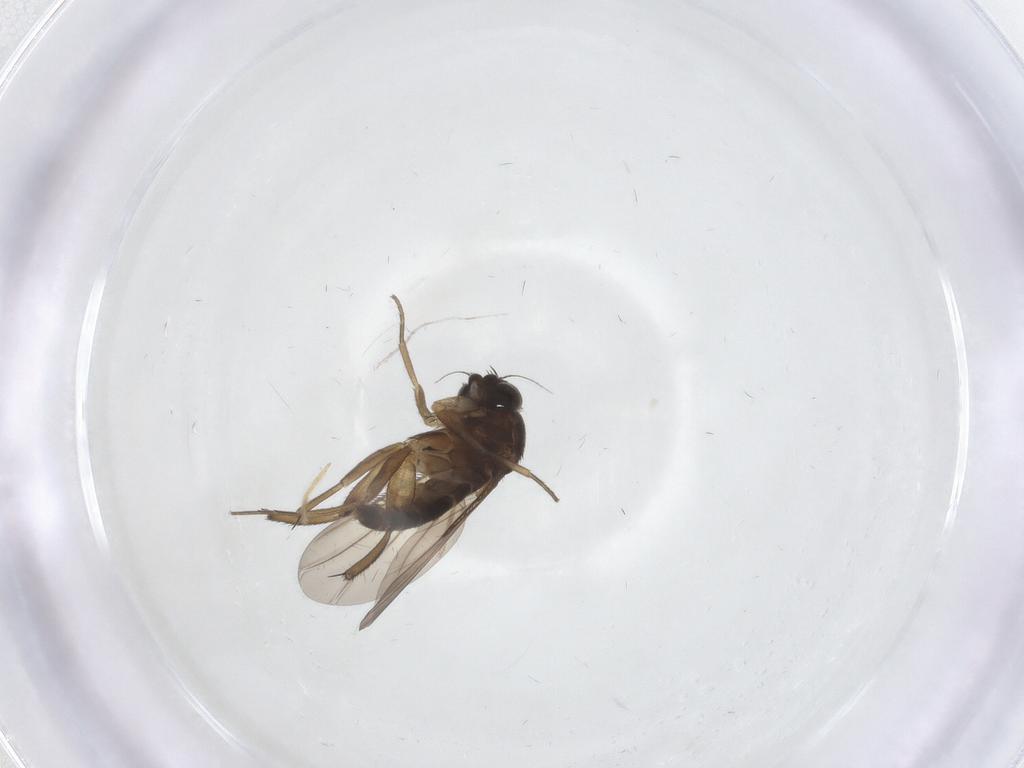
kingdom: Animalia
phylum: Arthropoda
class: Insecta
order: Diptera
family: Phoridae
